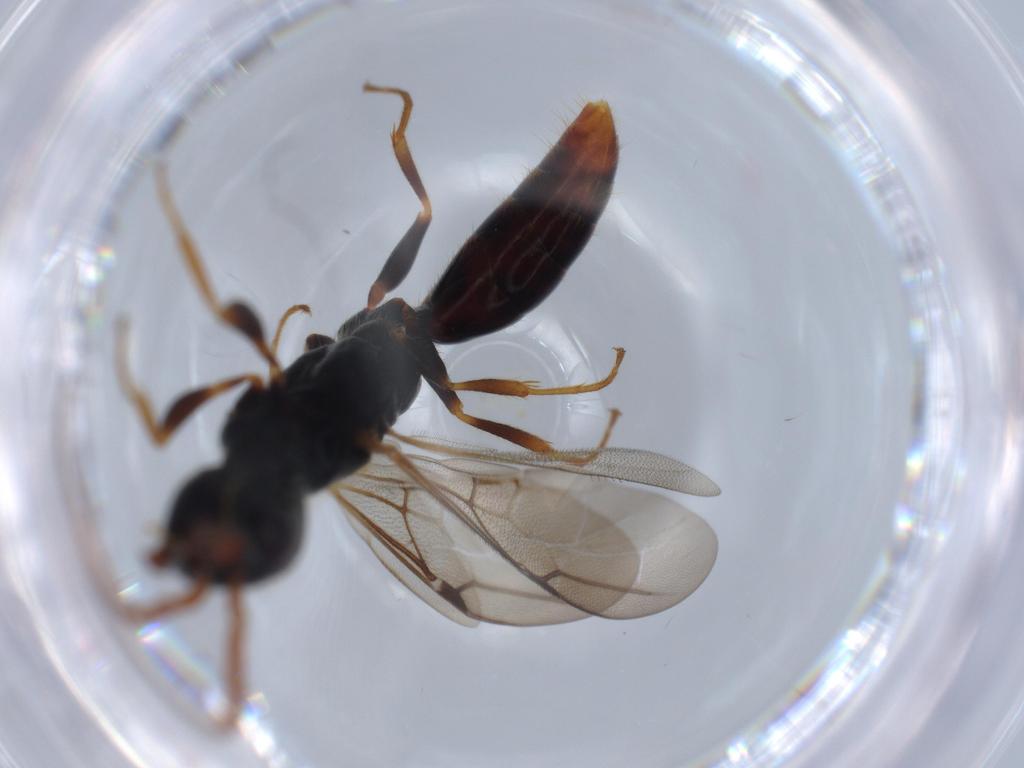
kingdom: Animalia
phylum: Arthropoda
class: Insecta
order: Hymenoptera
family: Bethylidae
